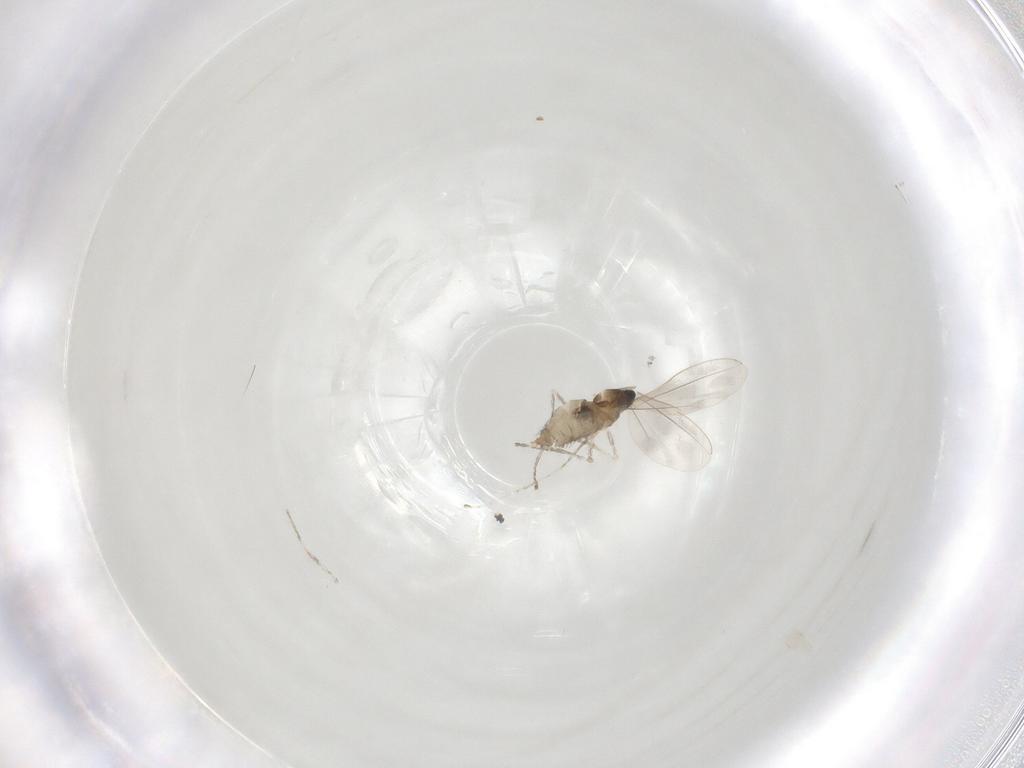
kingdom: Animalia
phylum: Arthropoda
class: Insecta
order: Diptera
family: Cecidomyiidae
